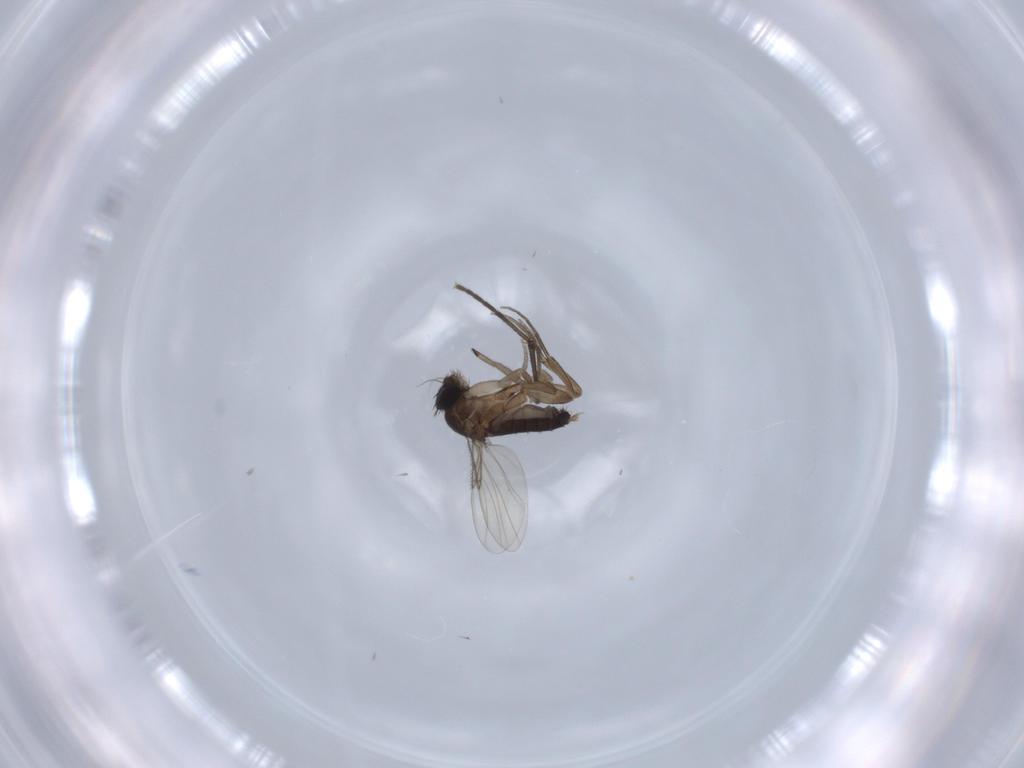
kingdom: Animalia
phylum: Arthropoda
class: Insecta
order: Diptera
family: Sciaridae
